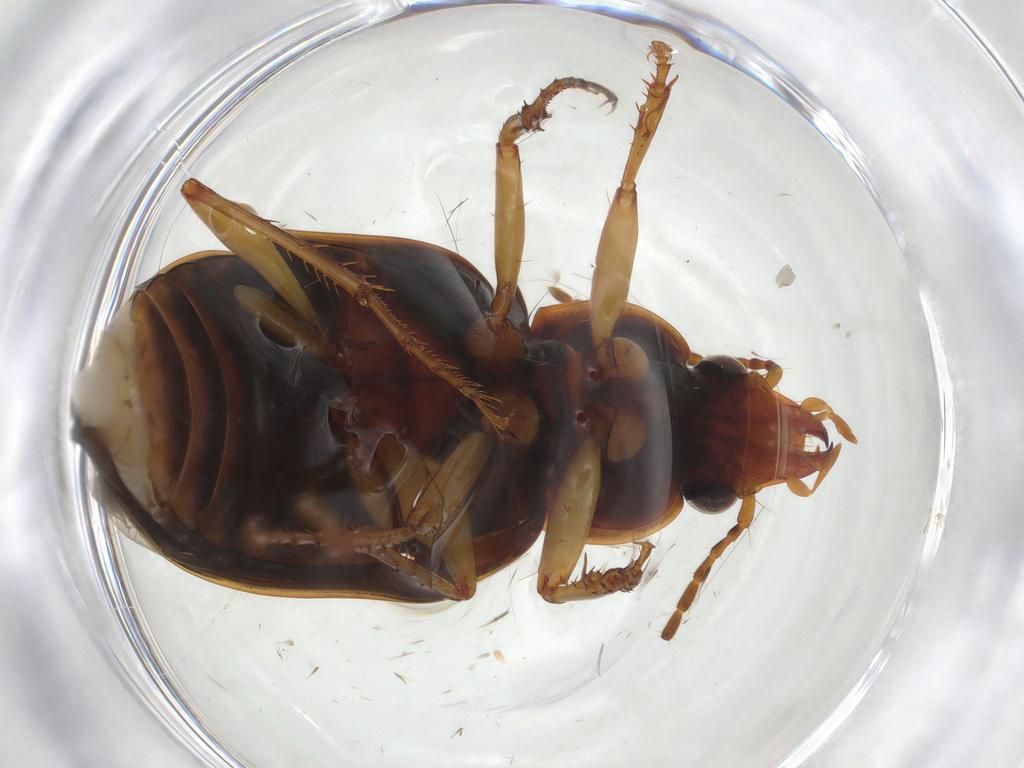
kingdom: Animalia
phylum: Arthropoda
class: Insecta
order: Coleoptera
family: Carabidae
